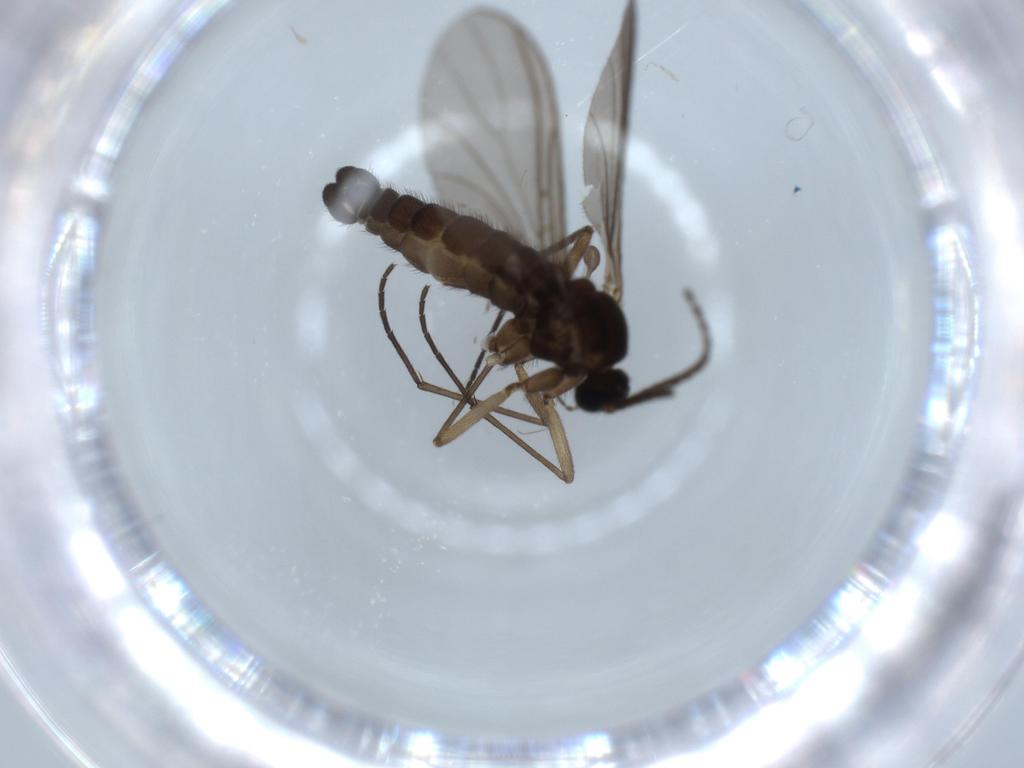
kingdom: Animalia
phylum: Arthropoda
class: Insecta
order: Diptera
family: Sciaridae
